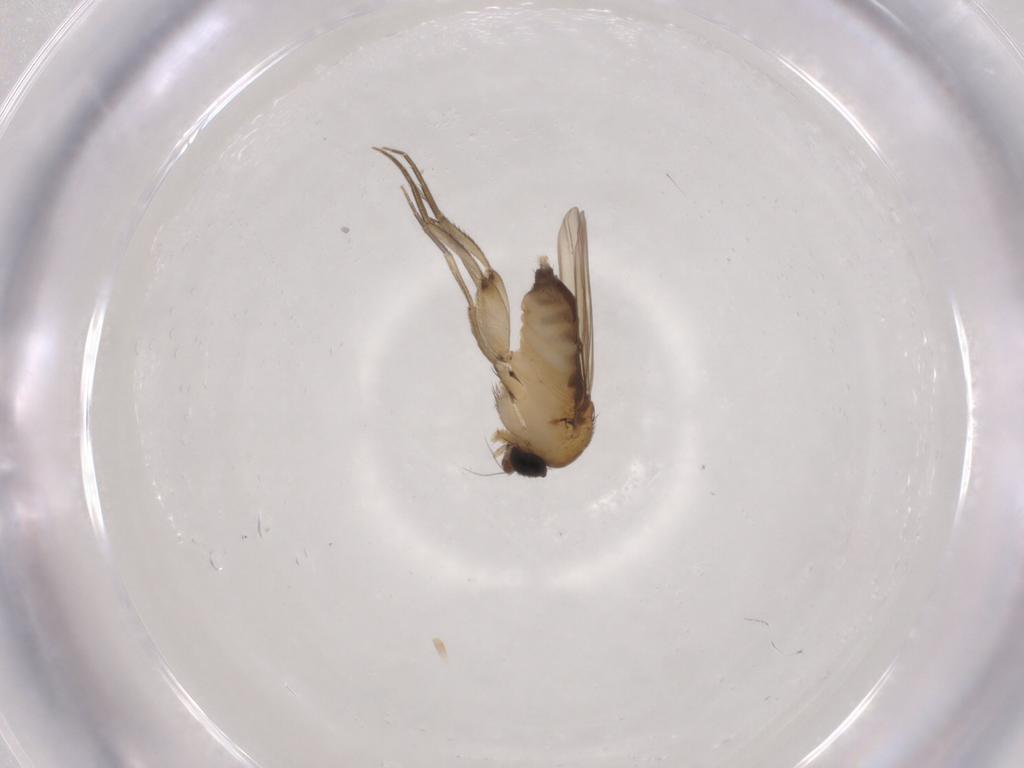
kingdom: Animalia
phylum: Arthropoda
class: Insecta
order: Diptera
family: Phoridae
